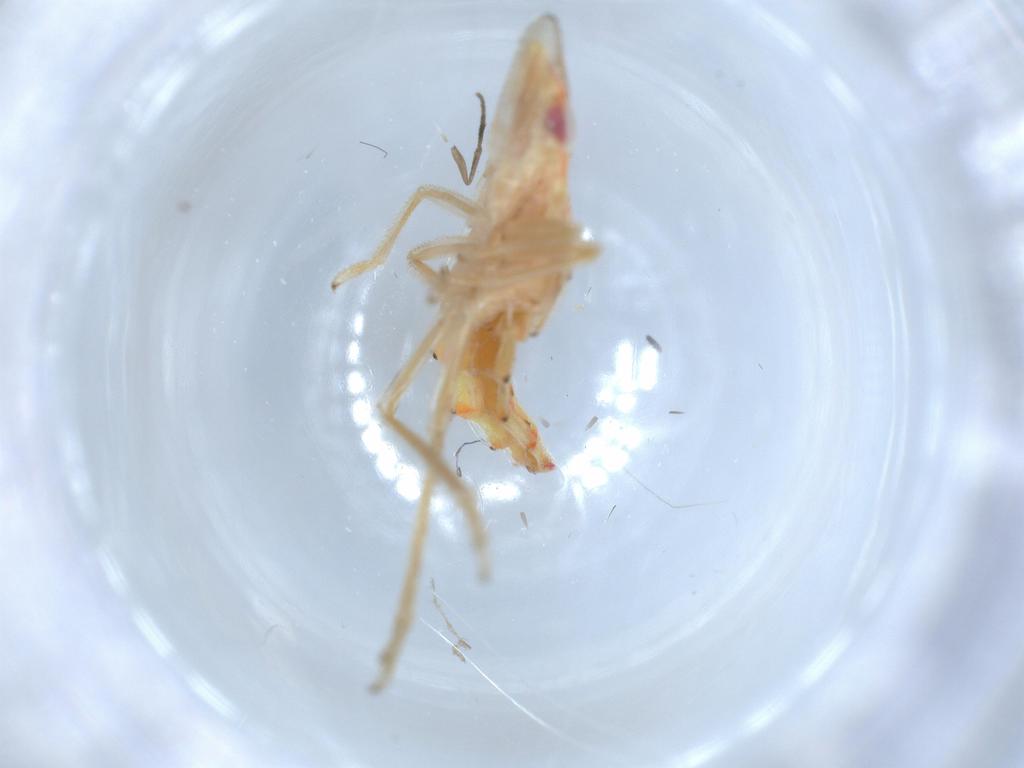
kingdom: Animalia
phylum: Arthropoda
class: Insecta
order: Hemiptera
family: Tropiduchidae
